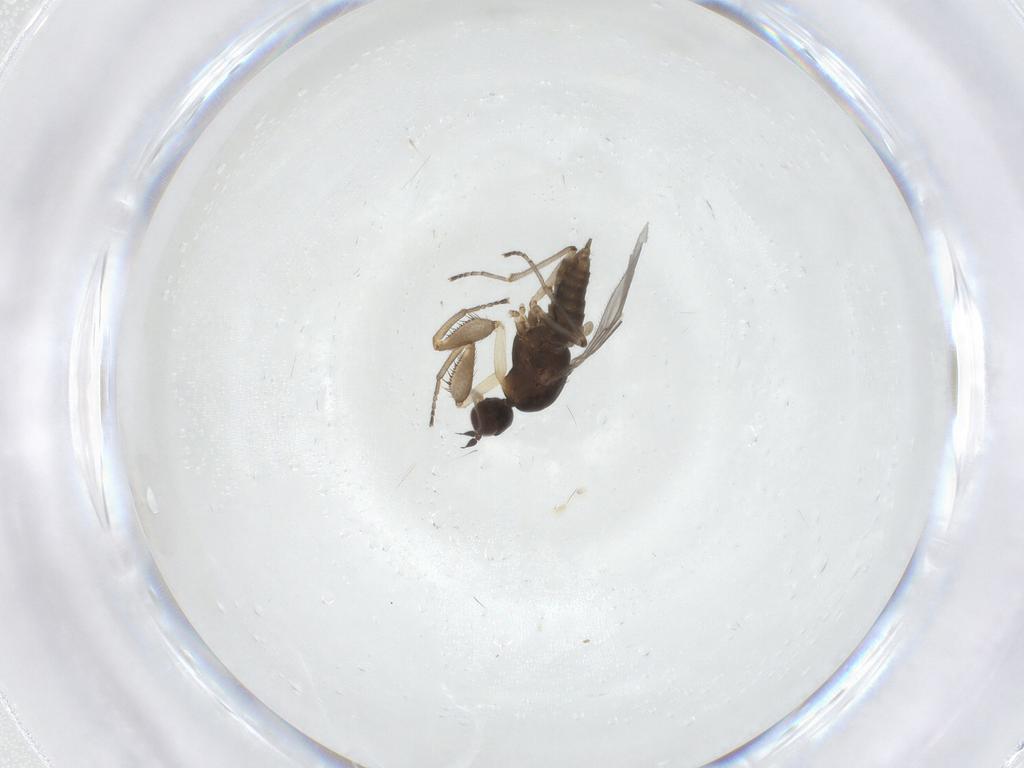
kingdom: Animalia
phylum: Arthropoda
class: Insecta
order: Diptera
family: Empididae
